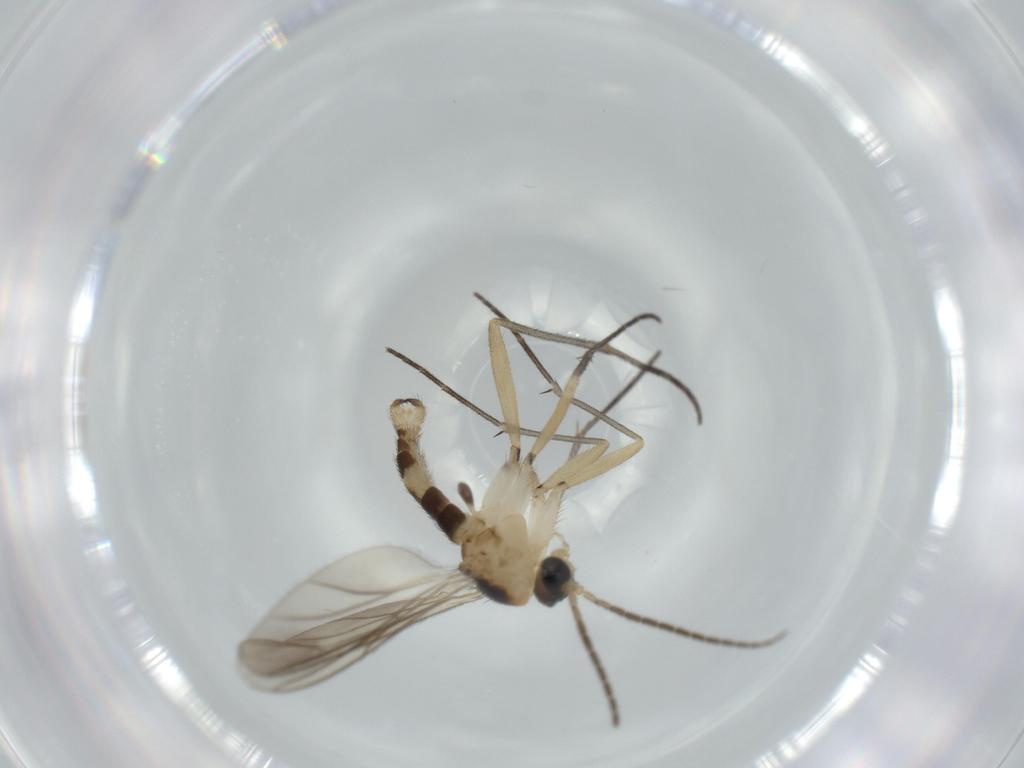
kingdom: Animalia
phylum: Arthropoda
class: Insecta
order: Diptera
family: Sciaridae
